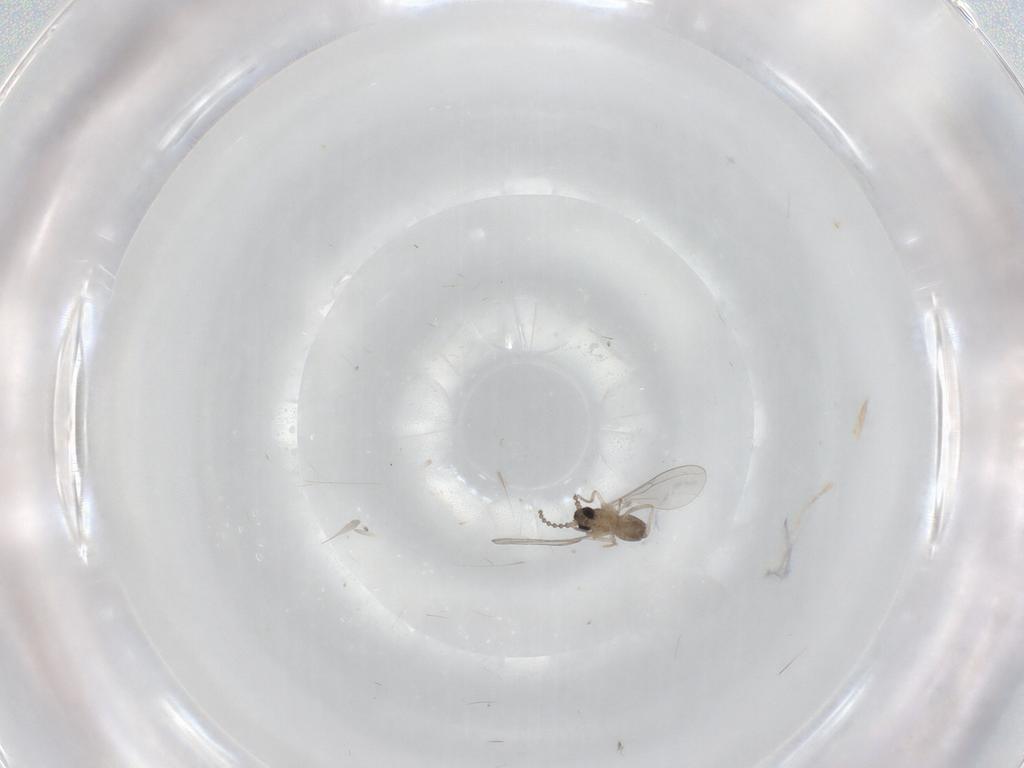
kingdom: Animalia
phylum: Arthropoda
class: Insecta
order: Diptera
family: Cecidomyiidae
